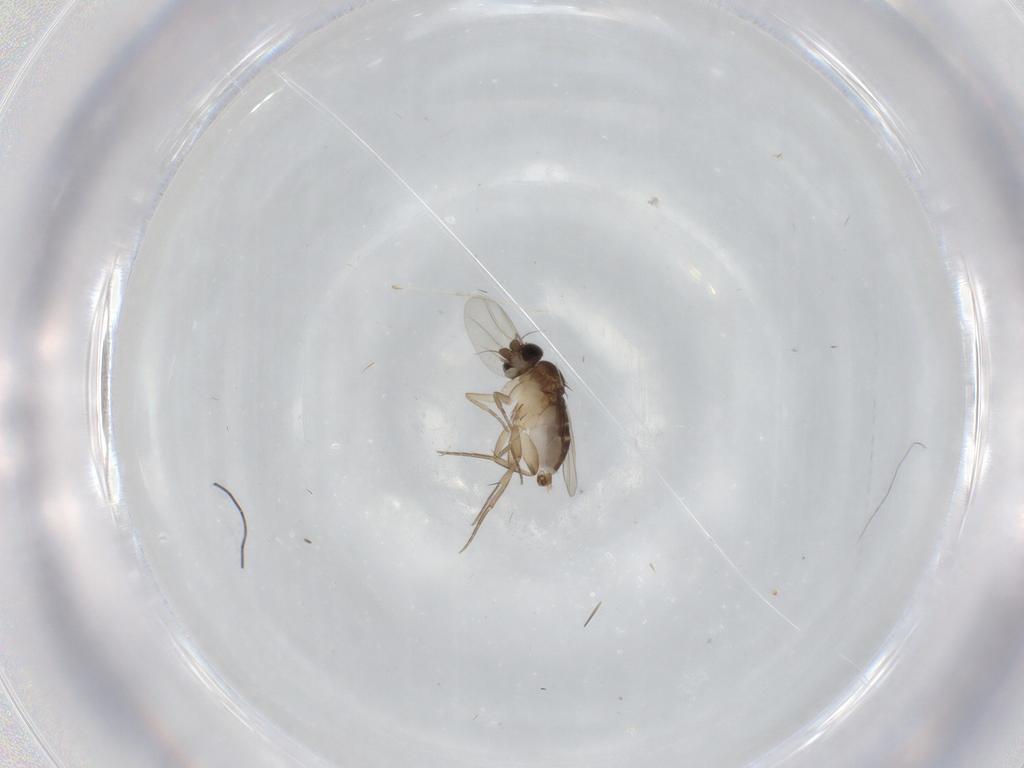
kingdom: Animalia
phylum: Arthropoda
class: Insecta
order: Diptera
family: Phoridae
